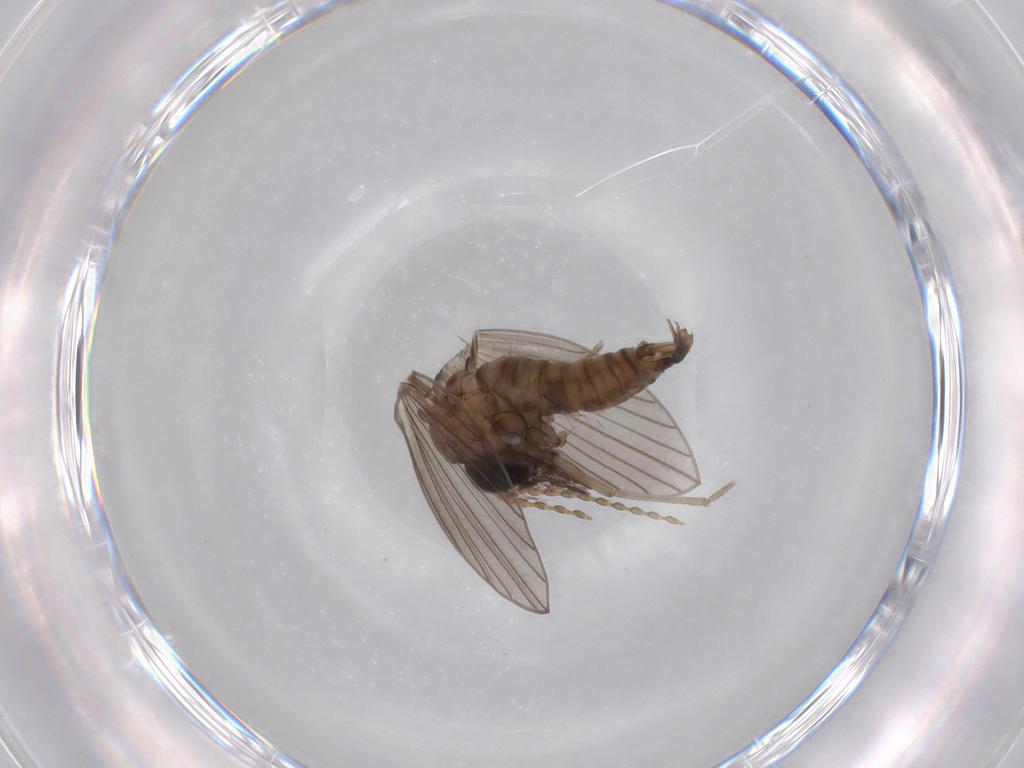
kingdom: Animalia
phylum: Arthropoda
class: Insecta
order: Diptera
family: Cecidomyiidae
